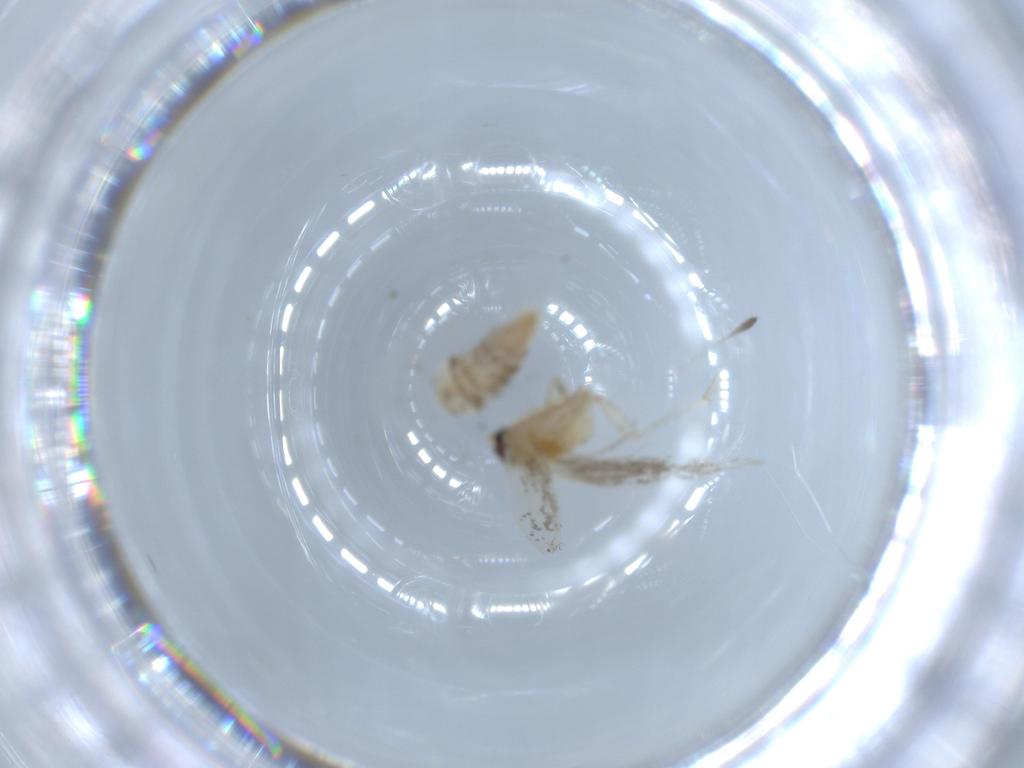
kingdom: Animalia
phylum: Arthropoda
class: Insecta
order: Lepidoptera
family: Tineidae
